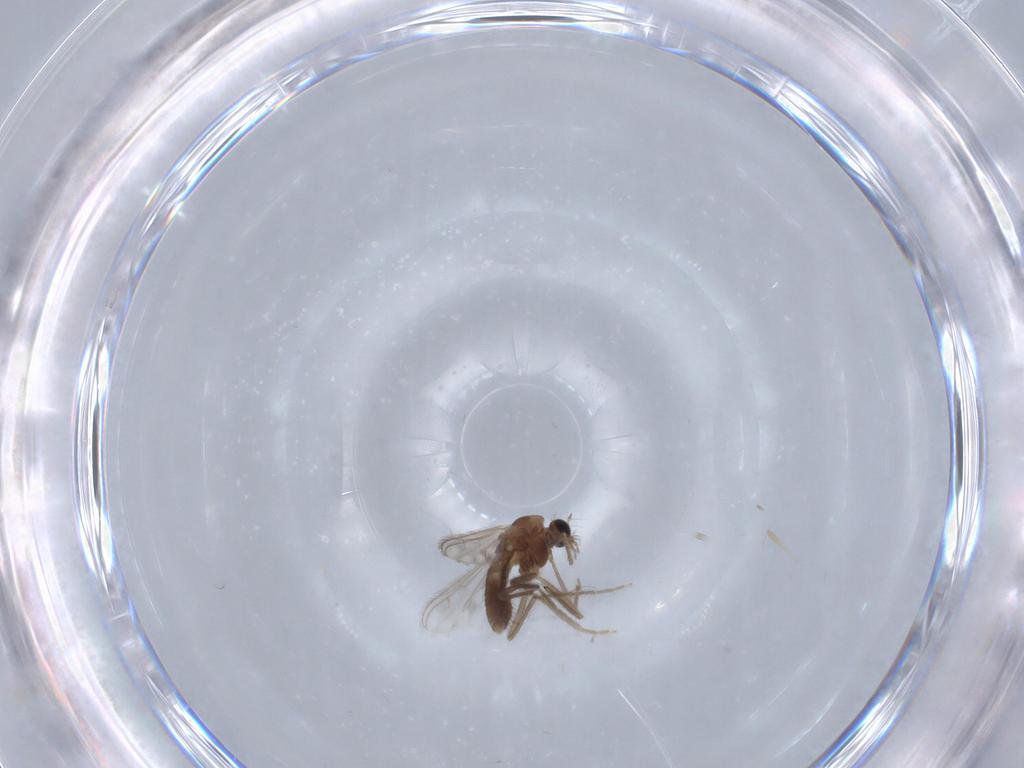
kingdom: Animalia
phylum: Arthropoda
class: Insecta
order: Diptera
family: Chironomidae
